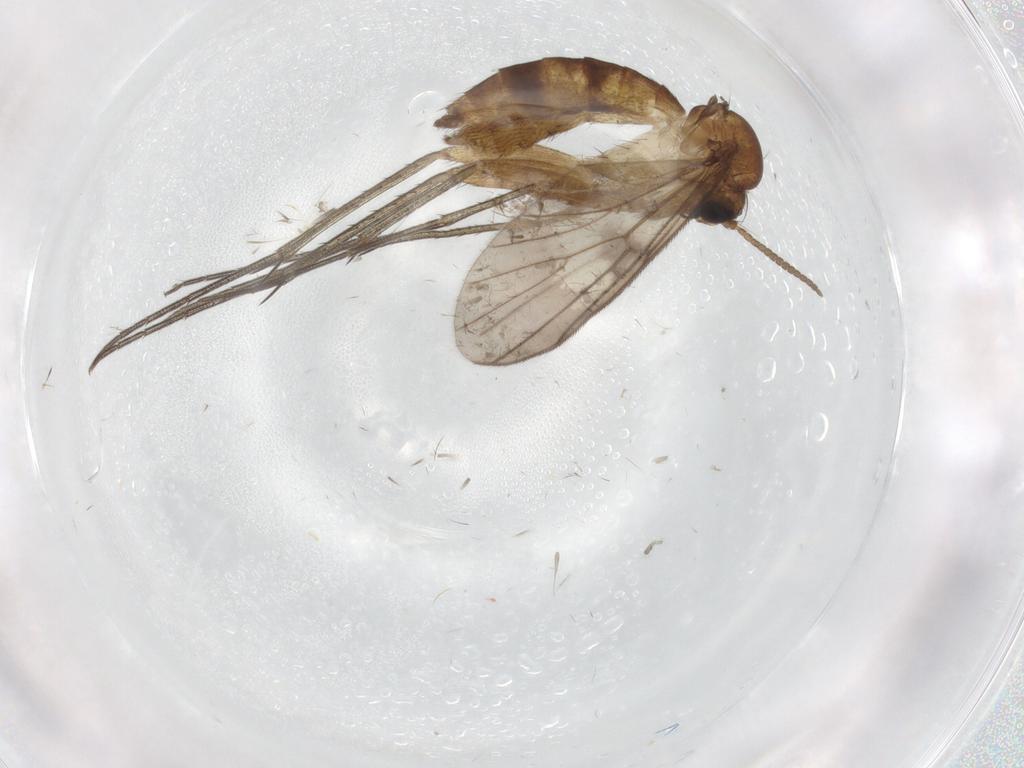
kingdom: Animalia
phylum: Arthropoda
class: Insecta
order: Diptera
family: Mycetophilidae
